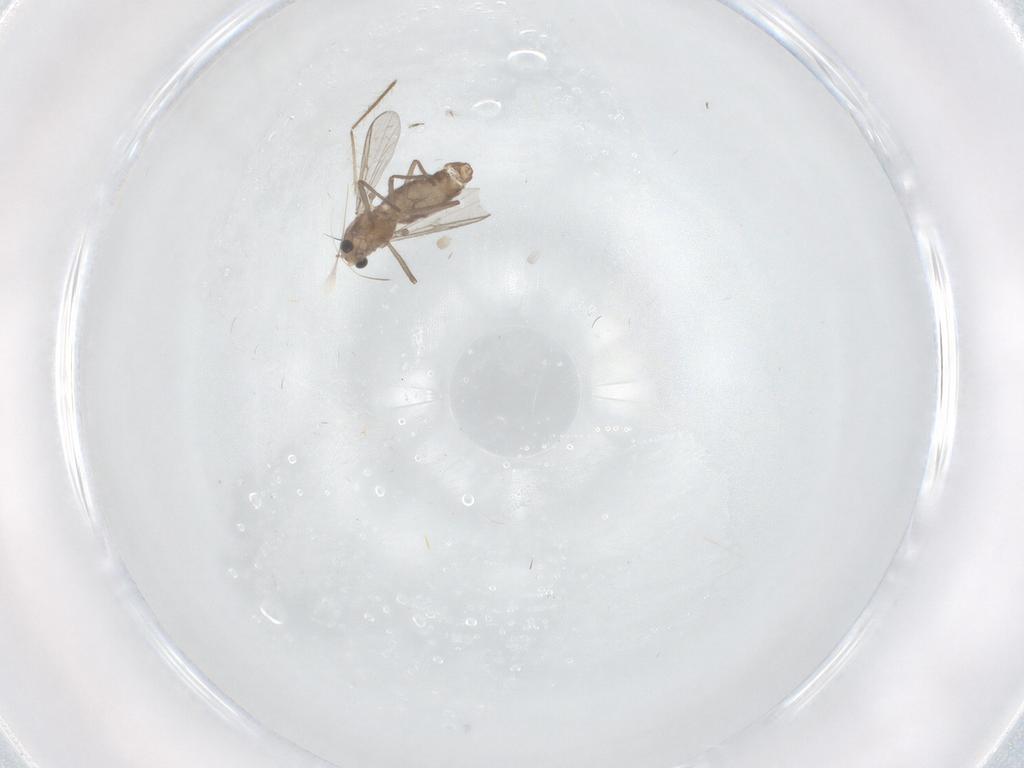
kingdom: Animalia
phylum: Arthropoda
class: Insecta
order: Diptera
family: Chironomidae
